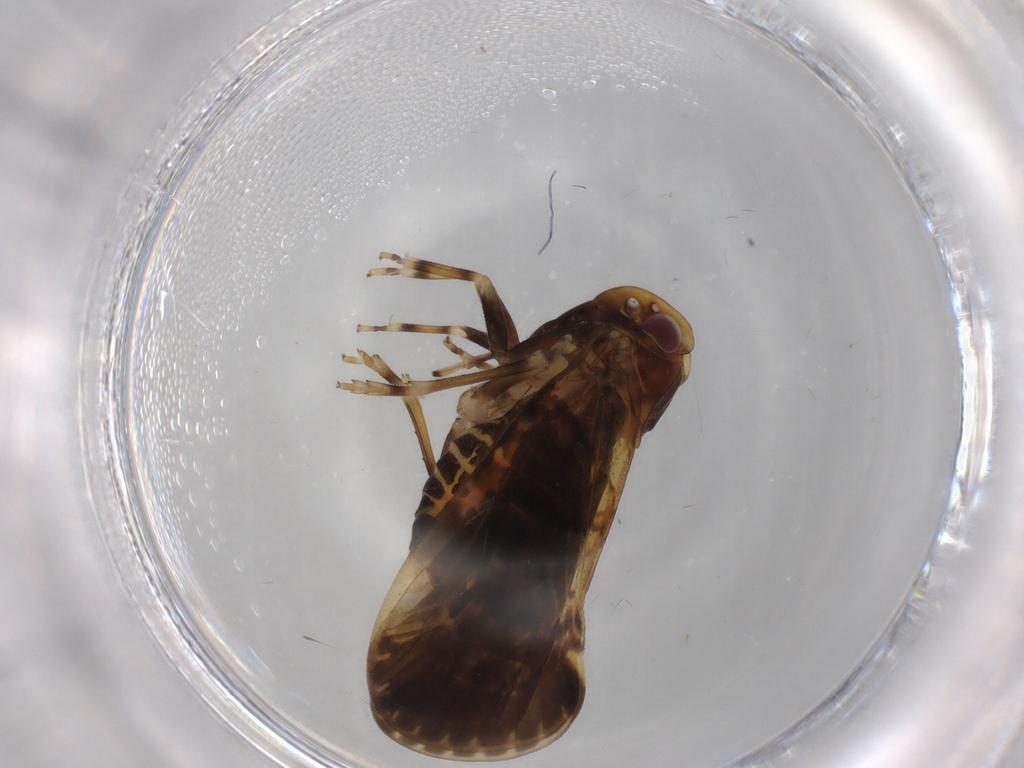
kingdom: Animalia
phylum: Arthropoda
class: Insecta
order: Hemiptera
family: Cixiidae
